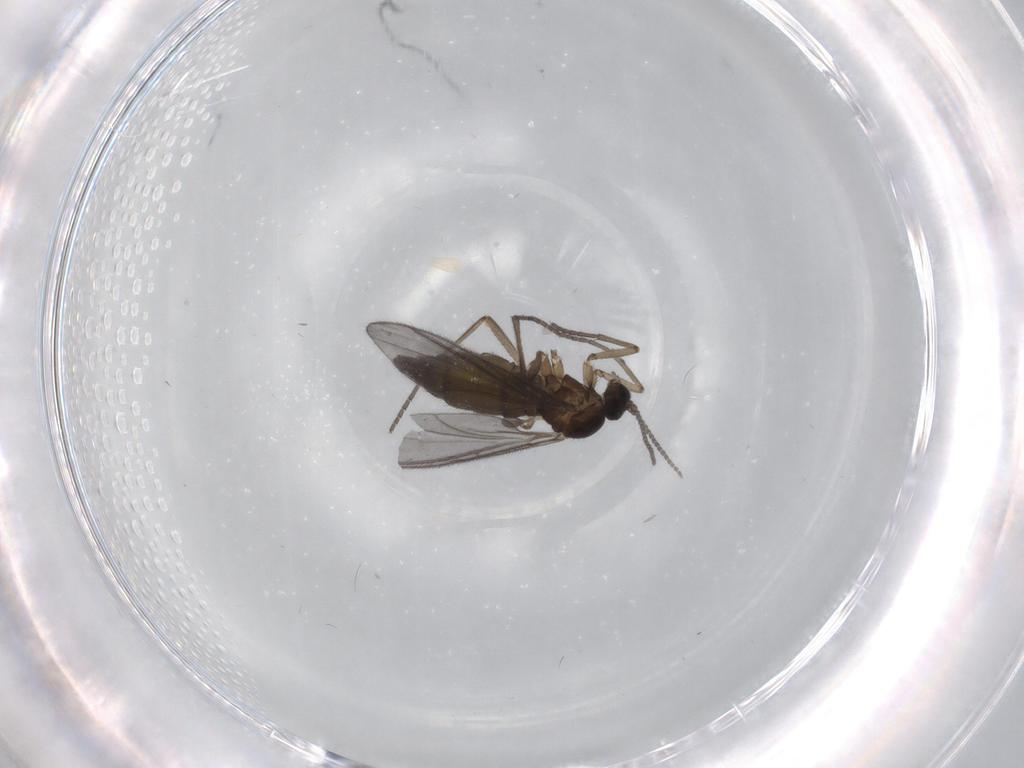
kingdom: Animalia
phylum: Arthropoda
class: Insecta
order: Diptera
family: Sciaridae
